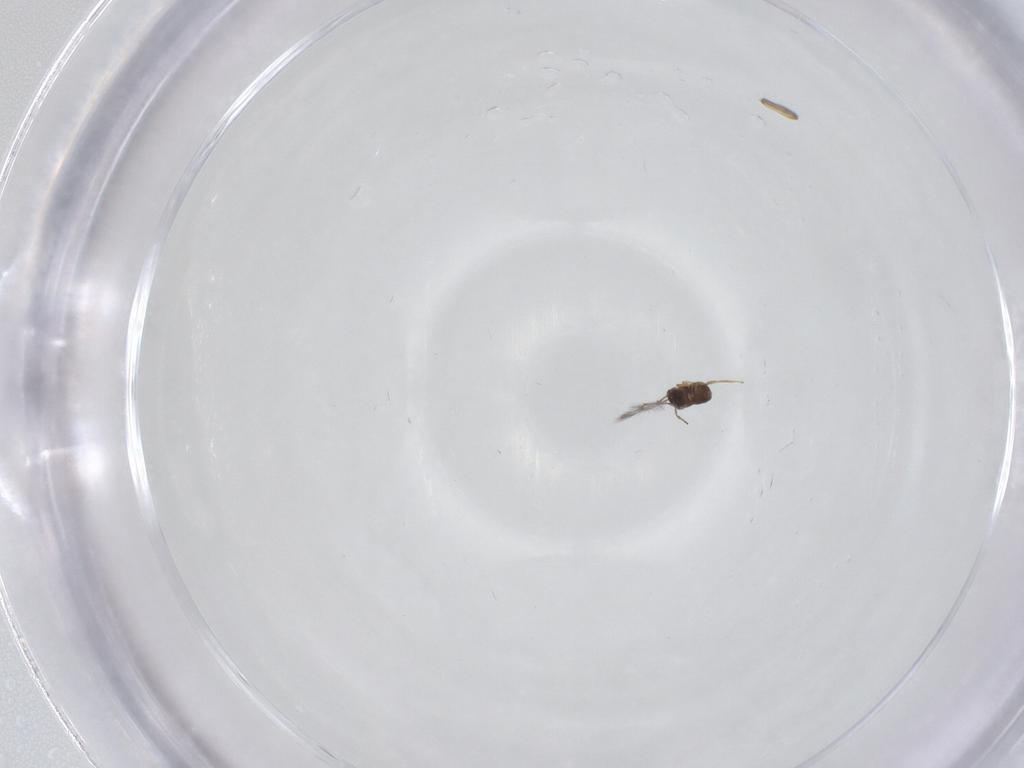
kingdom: Animalia
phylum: Arthropoda
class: Insecta
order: Hymenoptera
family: Mymaridae
